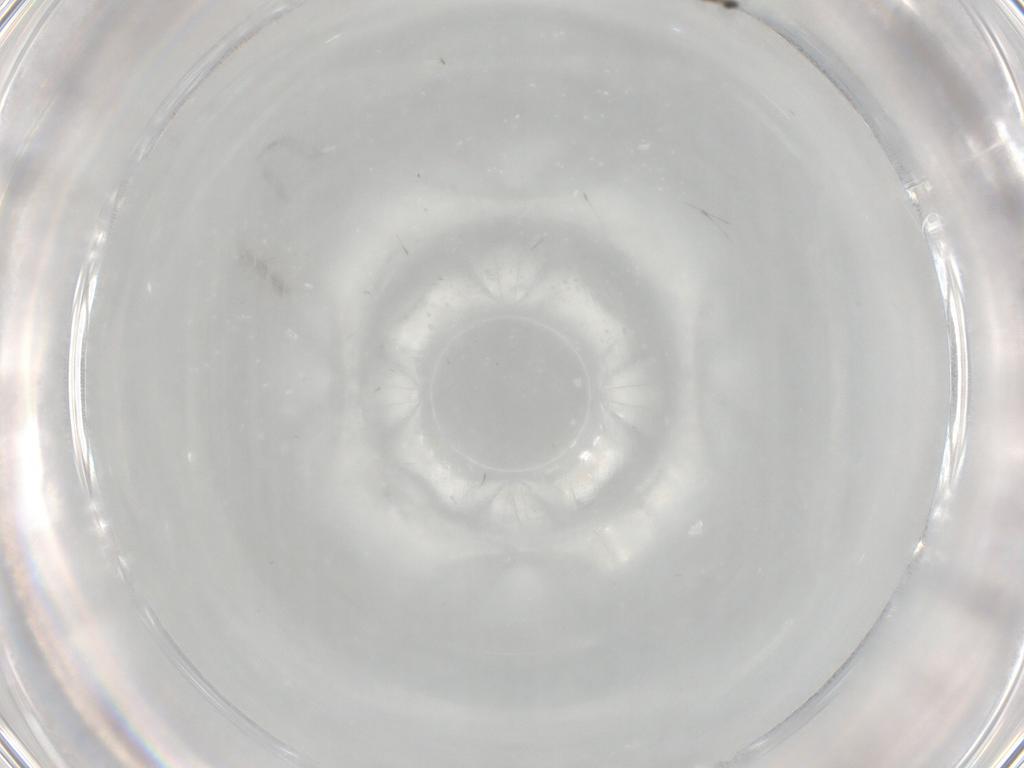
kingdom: Animalia
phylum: Arthropoda
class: Insecta
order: Diptera
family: Cecidomyiidae
